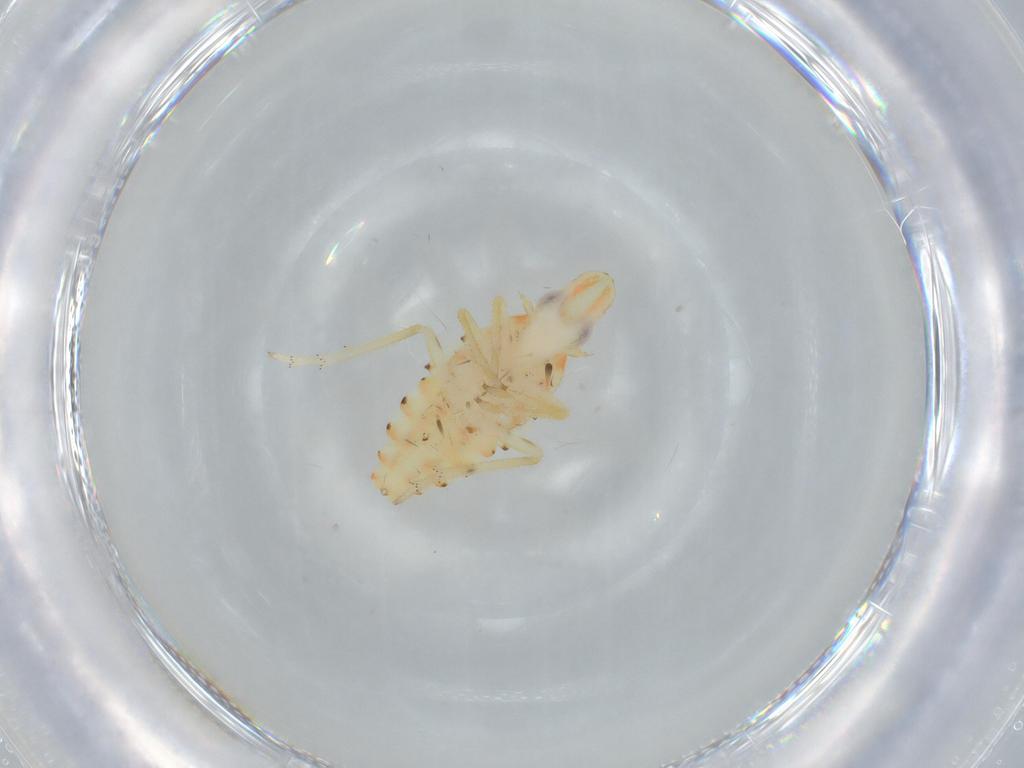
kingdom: Animalia
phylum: Arthropoda
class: Insecta
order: Hemiptera
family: Tropiduchidae
